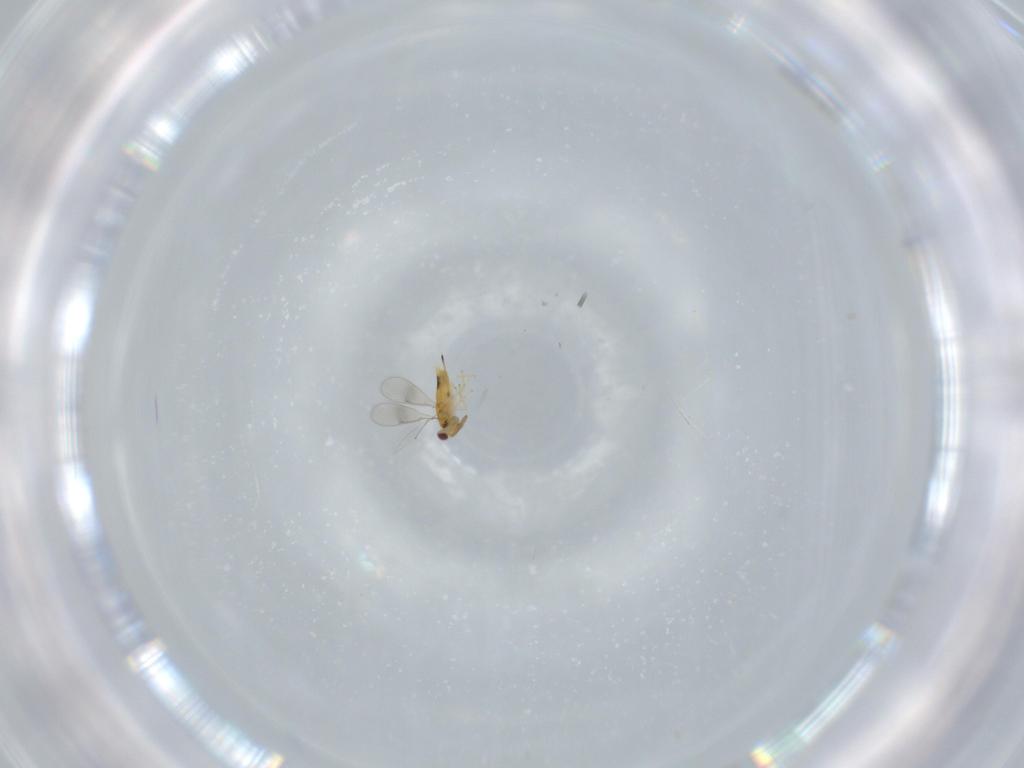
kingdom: Animalia
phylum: Arthropoda
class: Insecta
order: Hymenoptera
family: Aphelinidae
